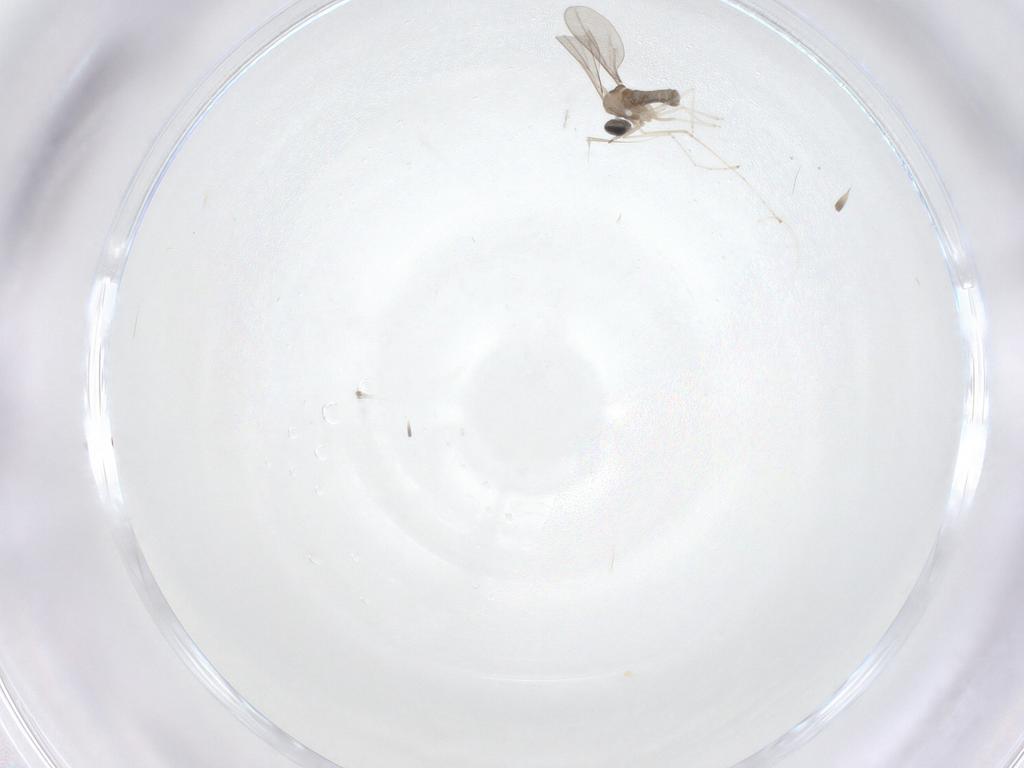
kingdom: Animalia
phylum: Arthropoda
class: Insecta
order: Diptera
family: Cecidomyiidae
